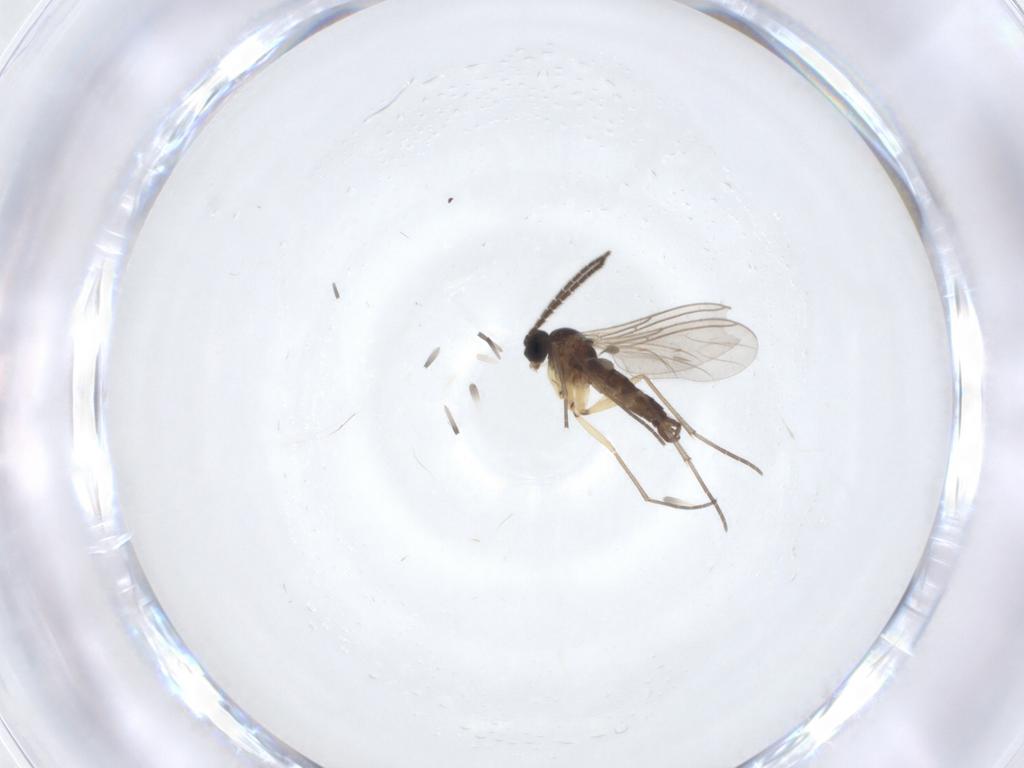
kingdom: Animalia
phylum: Arthropoda
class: Insecta
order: Diptera
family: Sciaridae
